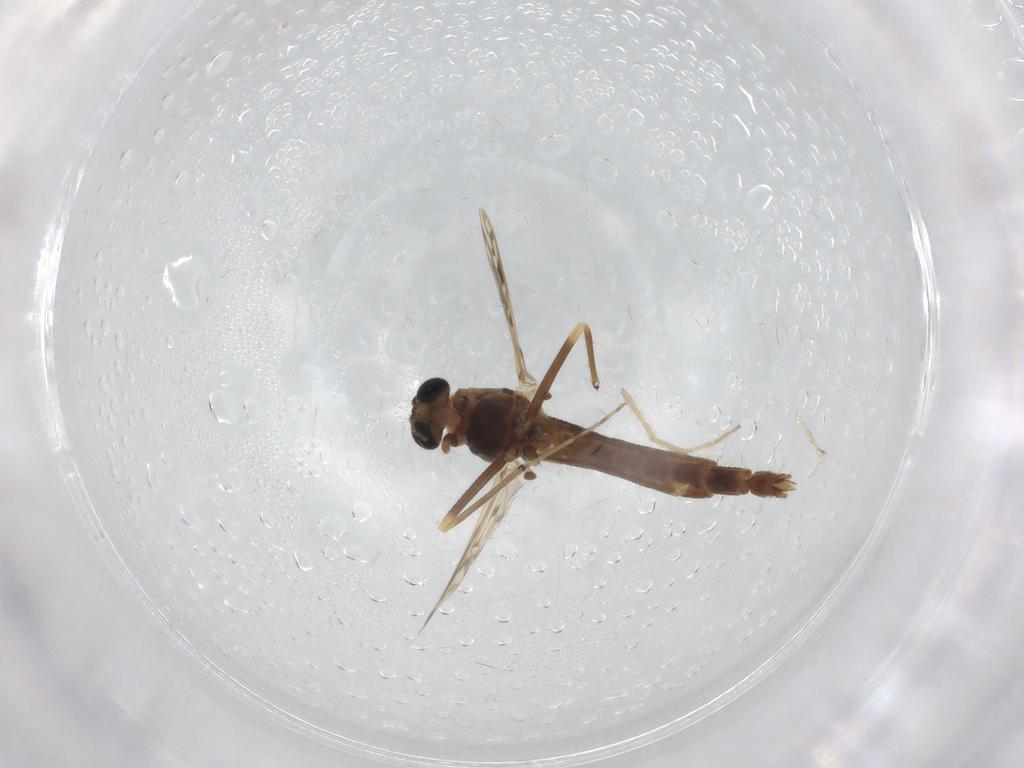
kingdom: Animalia
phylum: Arthropoda
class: Insecta
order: Diptera
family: Chironomidae
